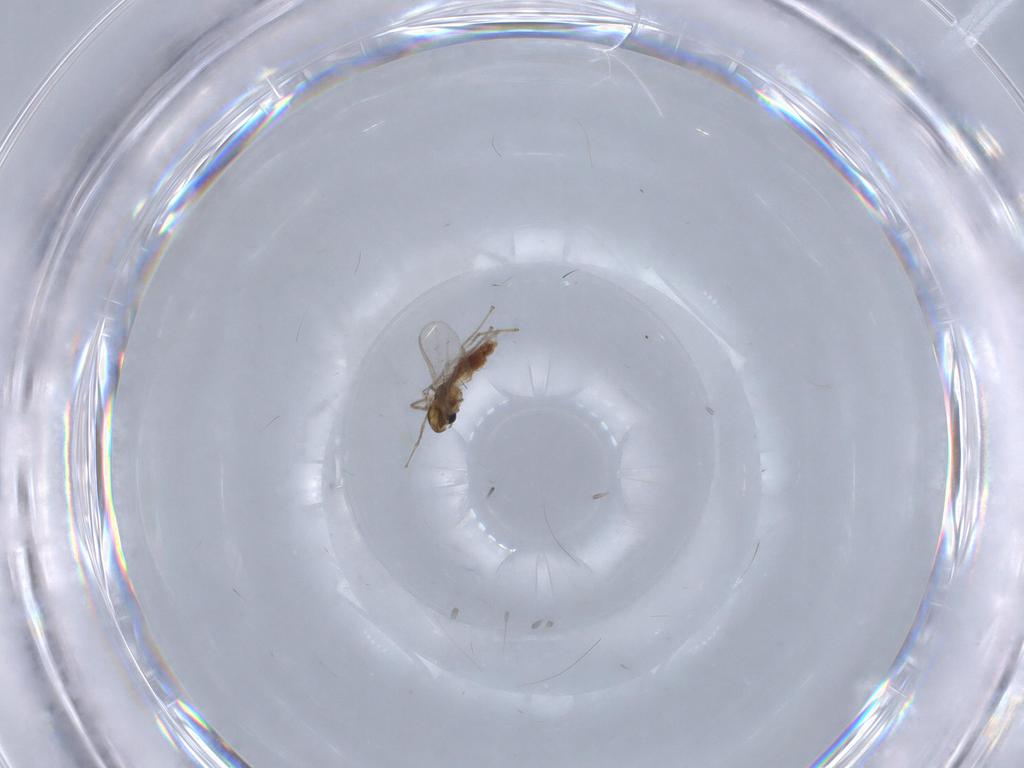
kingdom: Animalia
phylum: Arthropoda
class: Insecta
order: Diptera
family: Chironomidae
